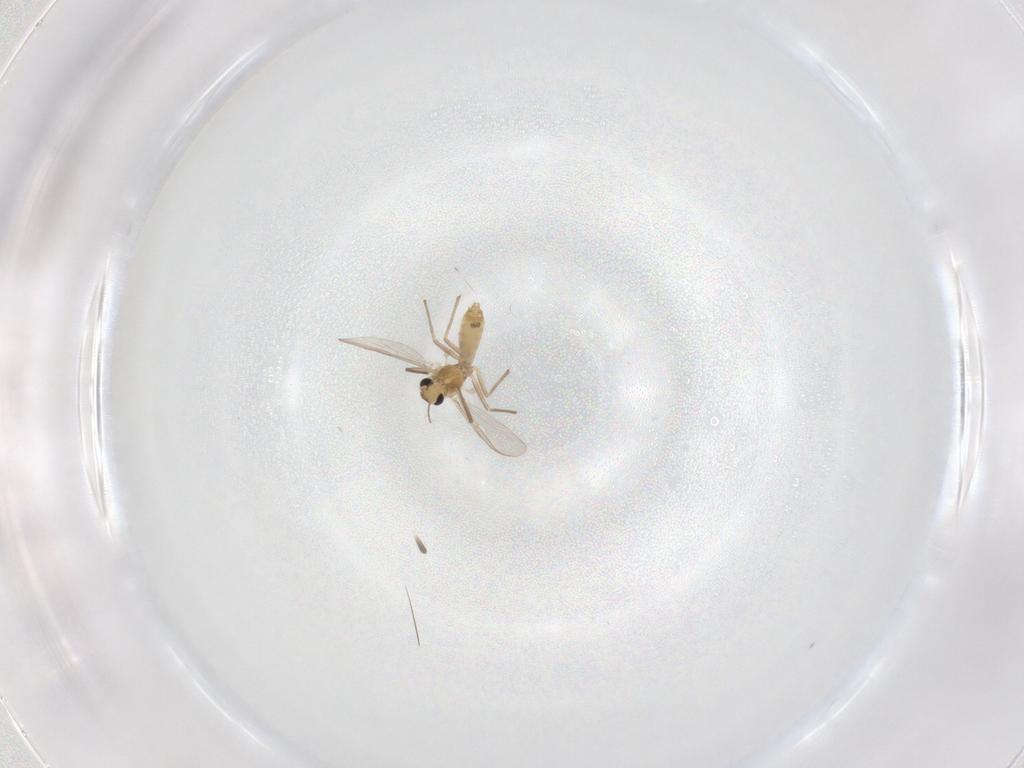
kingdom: Animalia
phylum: Arthropoda
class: Insecta
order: Diptera
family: Chironomidae
